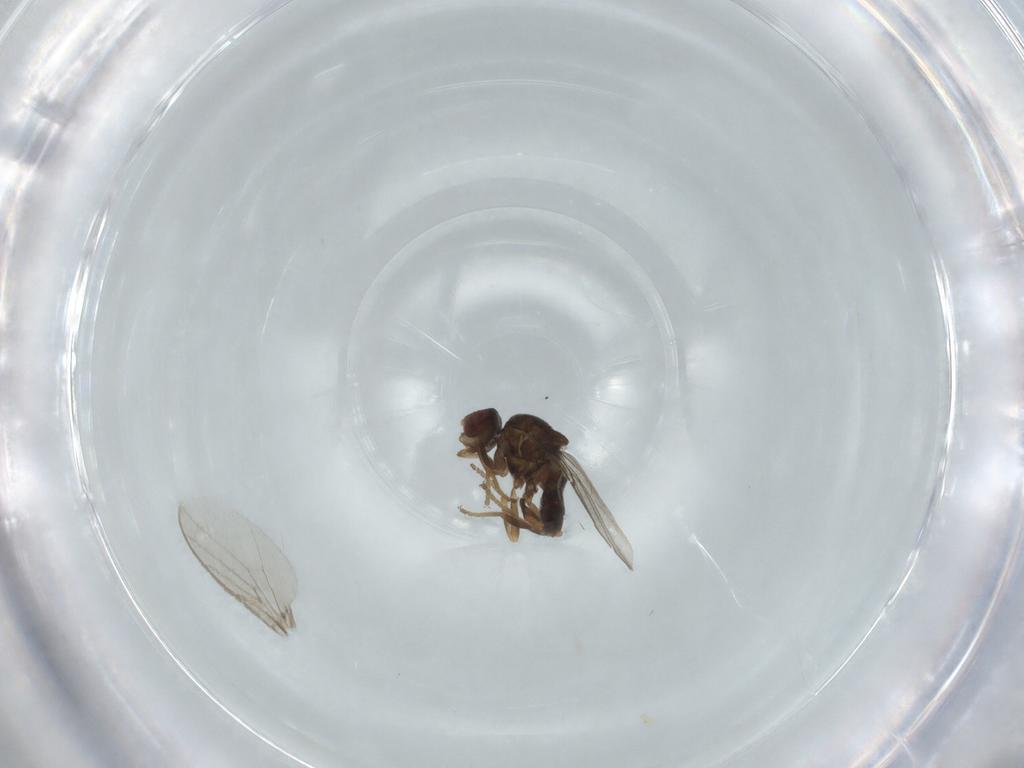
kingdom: Animalia
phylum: Arthropoda
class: Insecta
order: Diptera
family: Chloropidae
